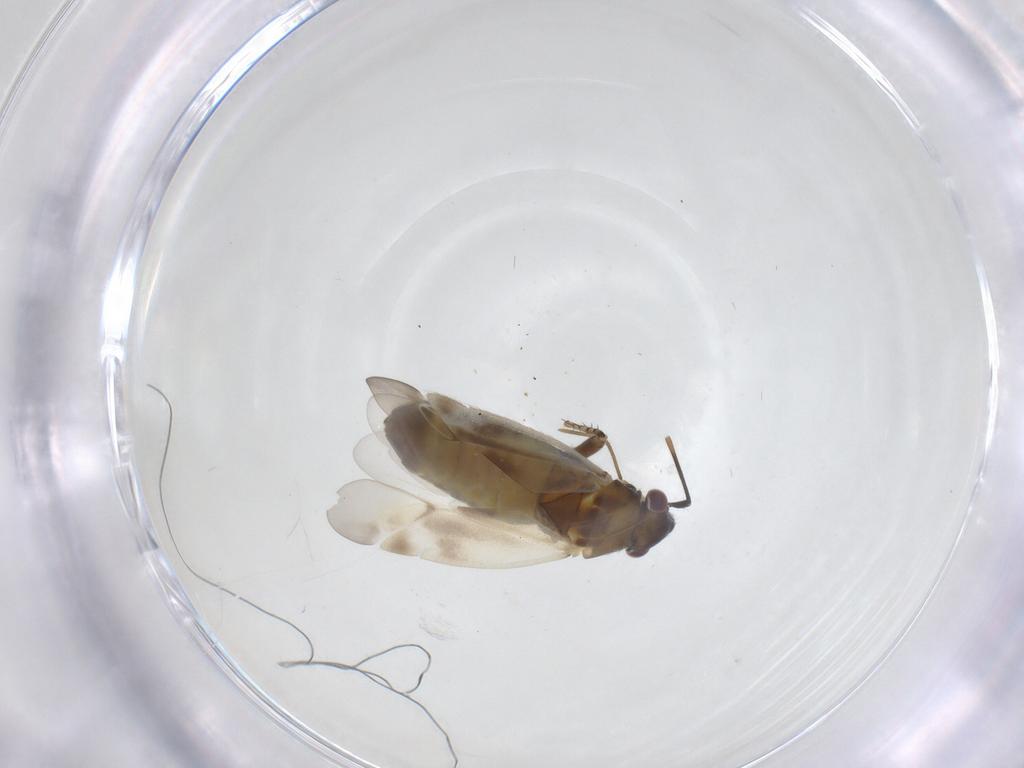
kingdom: Animalia
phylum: Arthropoda
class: Insecta
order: Hemiptera
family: Miridae
